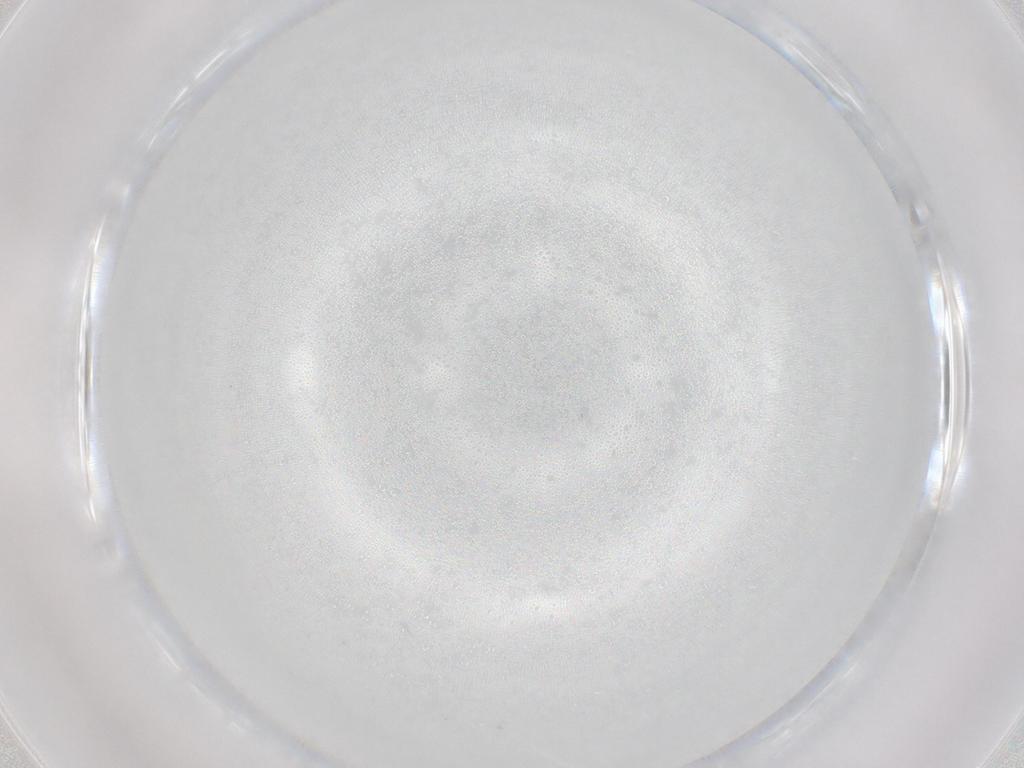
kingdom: Animalia
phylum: Arthropoda
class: Insecta
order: Diptera
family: Cecidomyiidae
